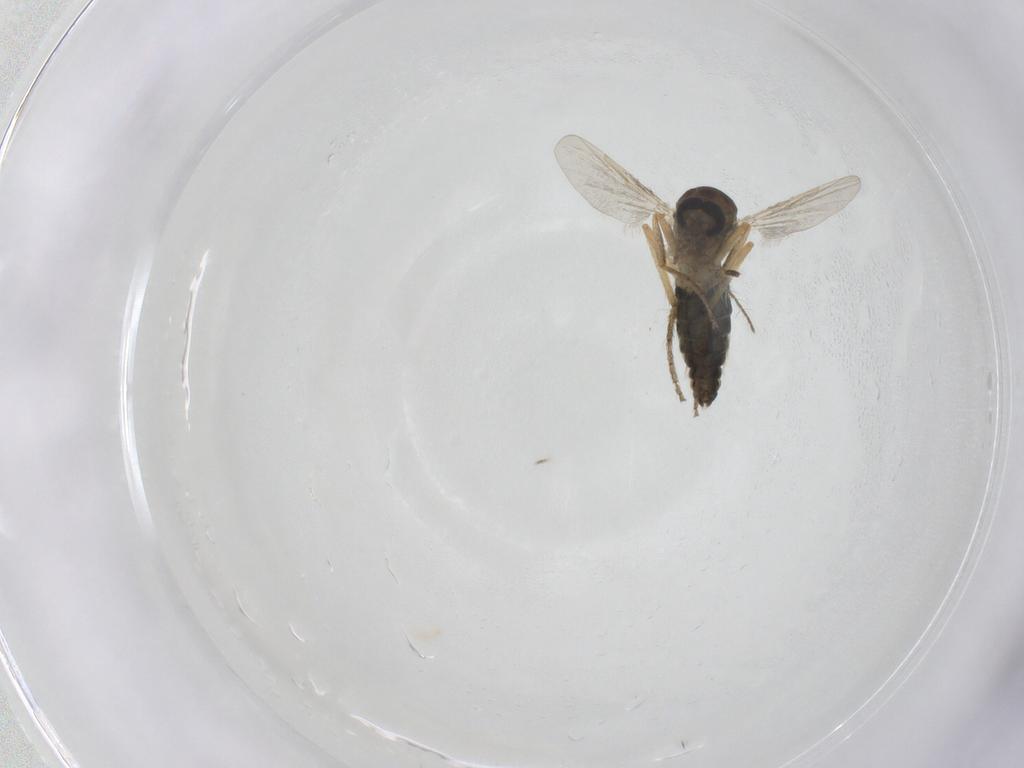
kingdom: Animalia
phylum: Arthropoda
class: Insecta
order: Diptera
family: Ceratopogonidae
